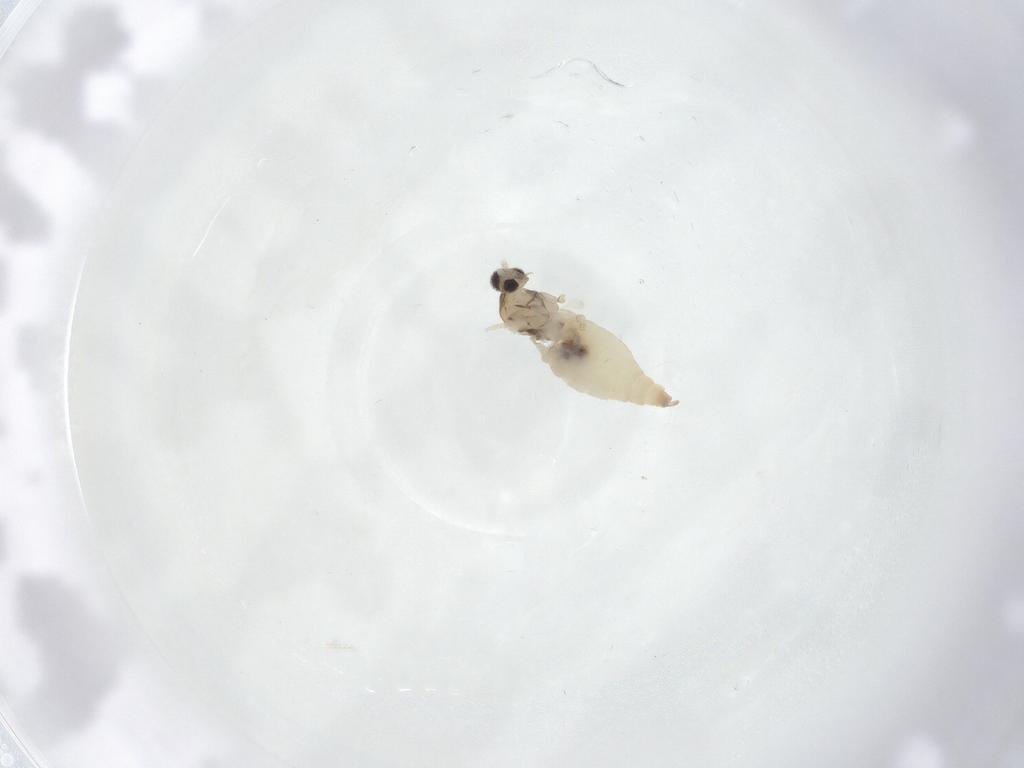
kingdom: Animalia
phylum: Arthropoda
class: Insecta
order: Diptera
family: Cecidomyiidae
